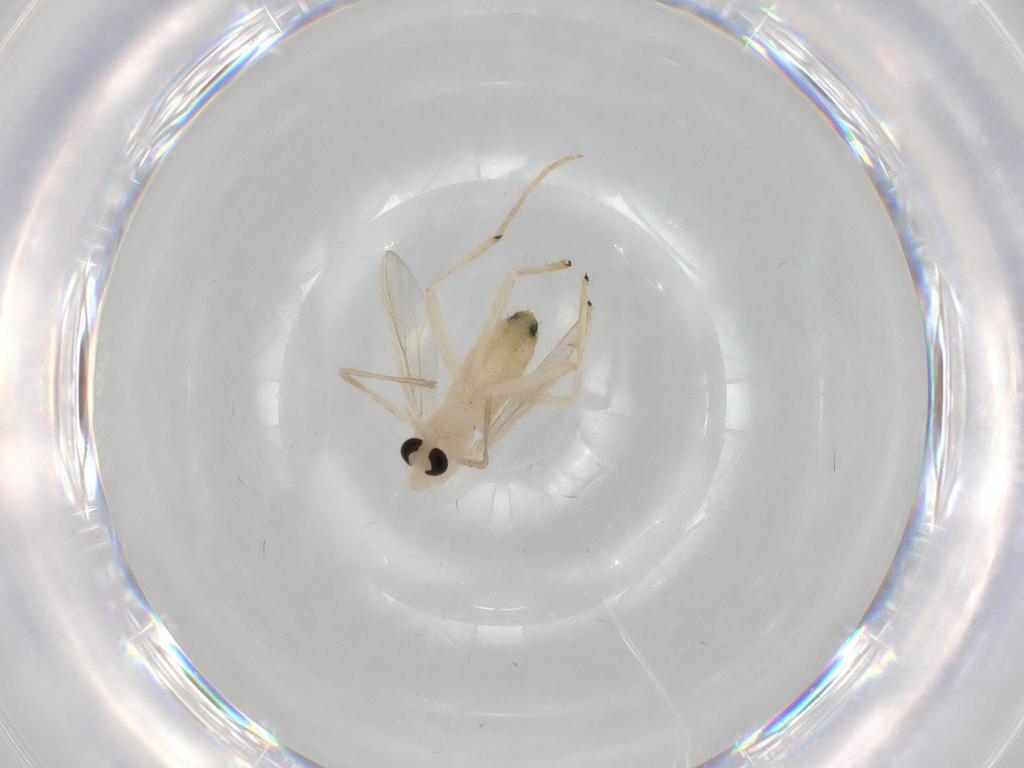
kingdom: Animalia
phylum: Arthropoda
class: Insecta
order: Diptera
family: Chironomidae
